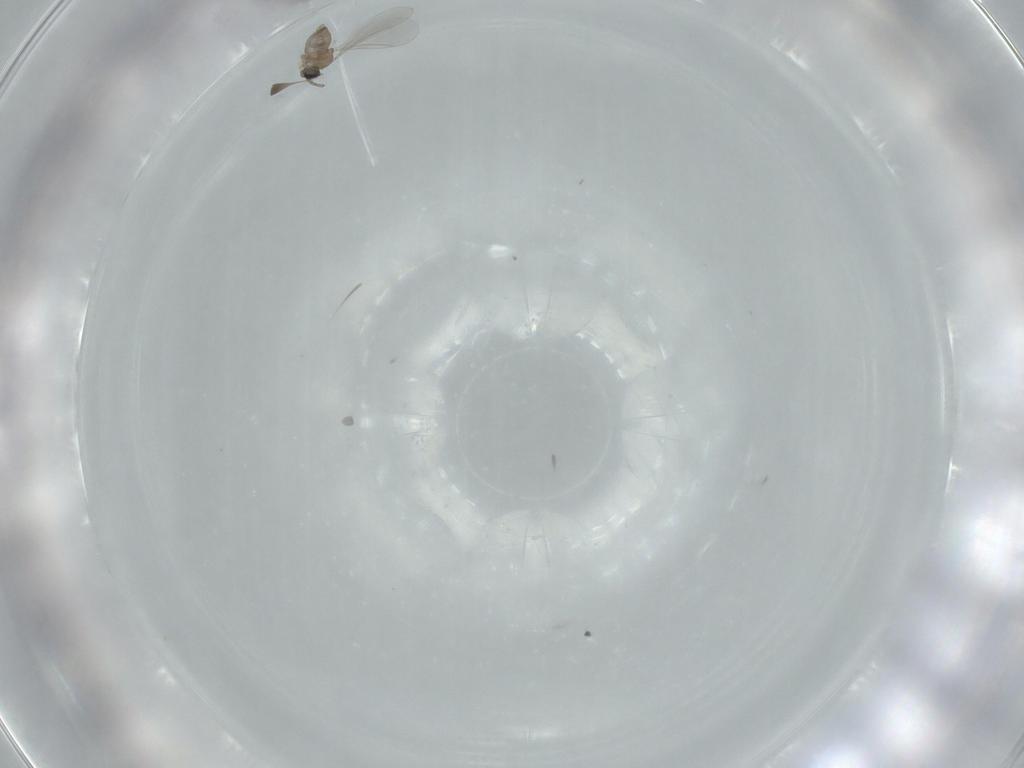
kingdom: Animalia
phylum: Arthropoda
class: Insecta
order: Diptera
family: Cecidomyiidae
